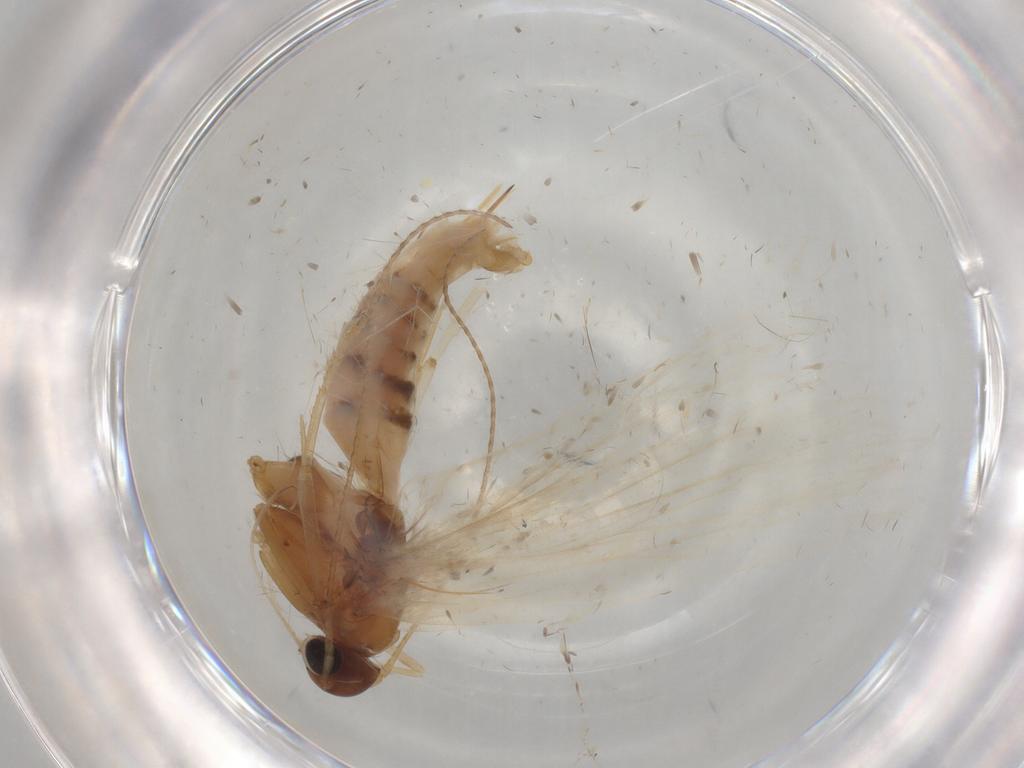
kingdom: Animalia
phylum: Arthropoda
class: Insecta
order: Lepidoptera
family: Gelechiidae
